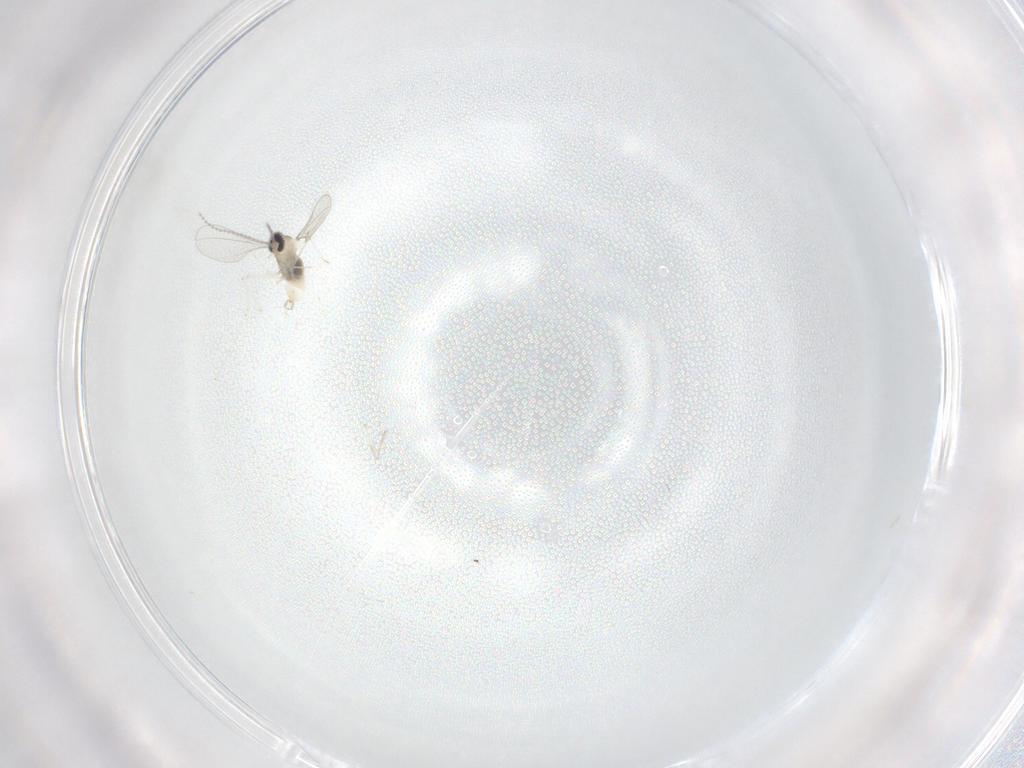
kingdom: Animalia
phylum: Arthropoda
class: Insecta
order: Diptera
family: Cecidomyiidae
